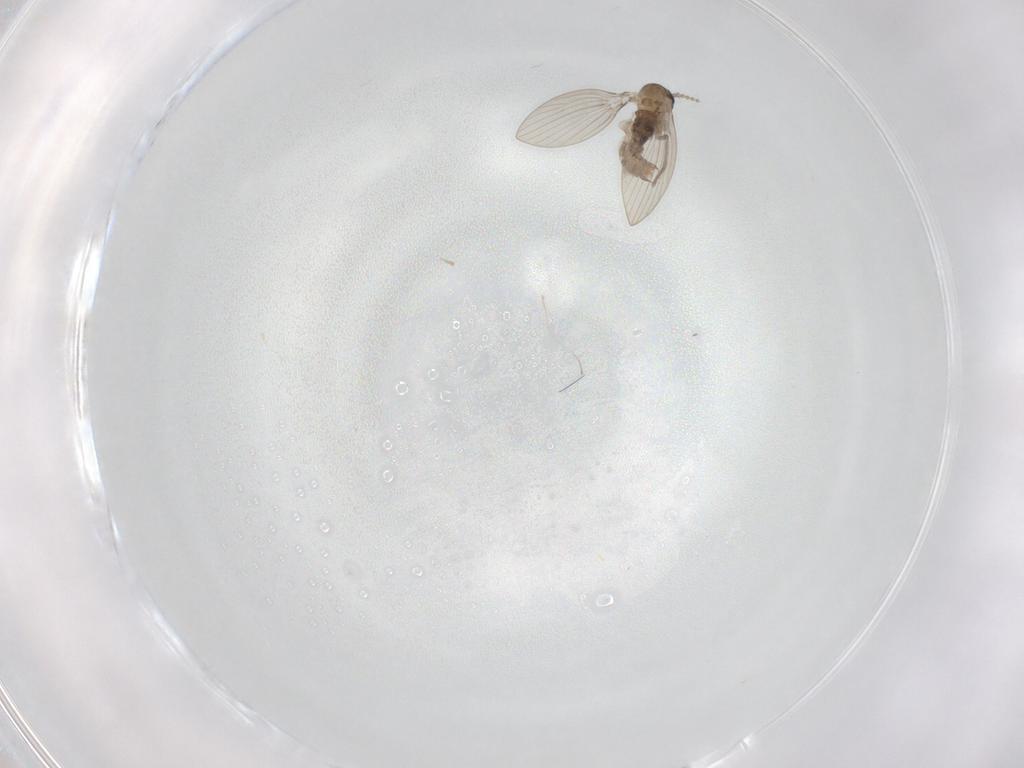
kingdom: Animalia
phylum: Arthropoda
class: Insecta
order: Diptera
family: Psychodidae
